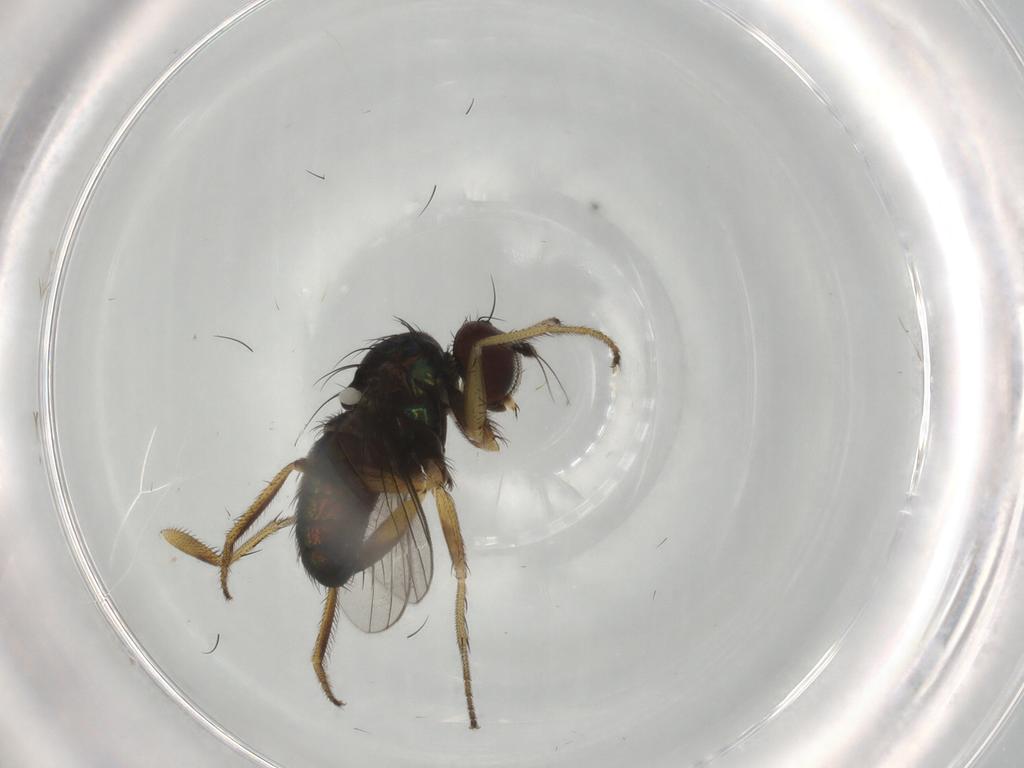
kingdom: Animalia
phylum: Arthropoda
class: Insecta
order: Diptera
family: Dolichopodidae
